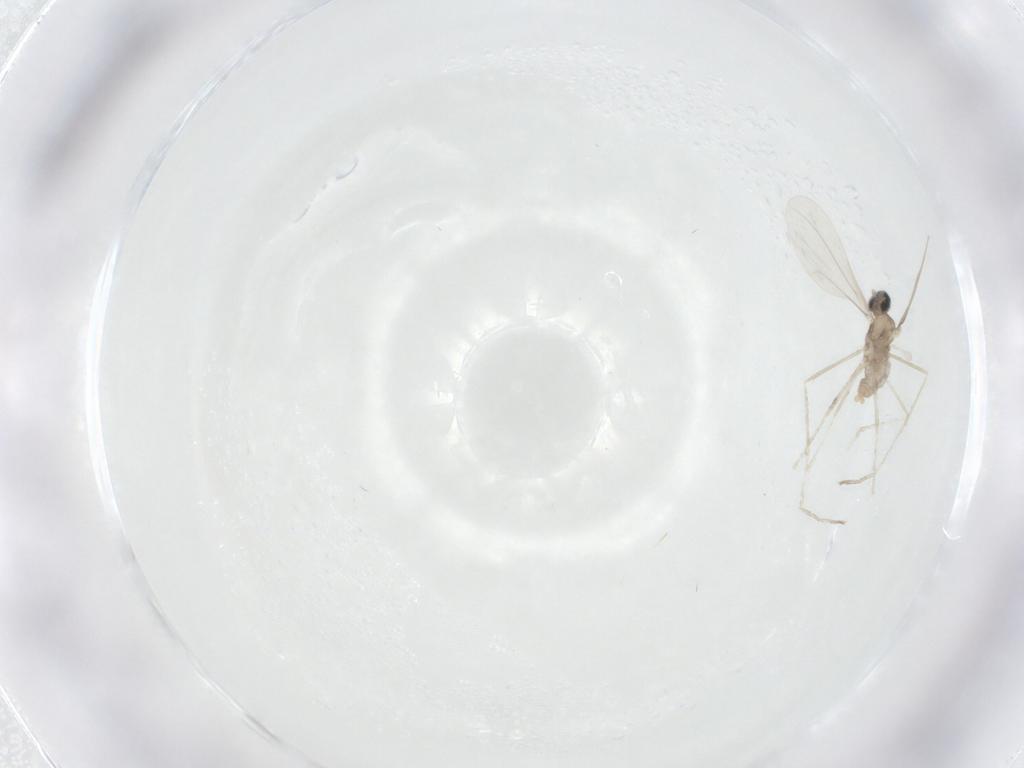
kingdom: Animalia
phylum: Arthropoda
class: Insecta
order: Diptera
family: Cecidomyiidae
